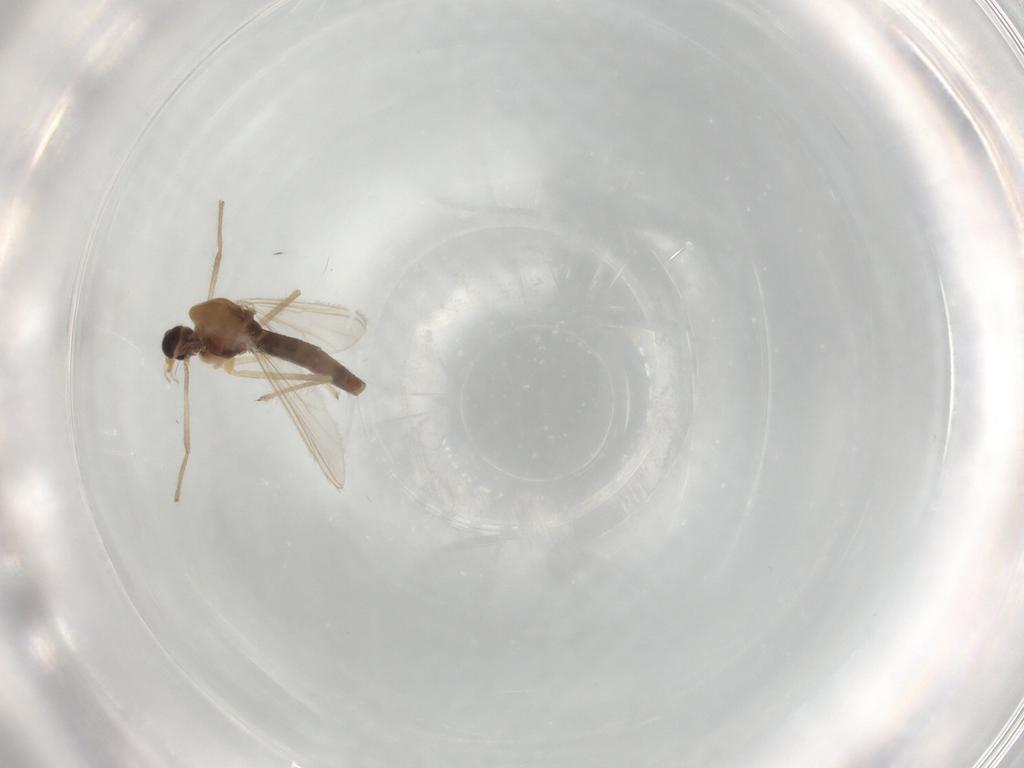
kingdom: Animalia
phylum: Arthropoda
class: Insecta
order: Diptera
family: Chironomidae
